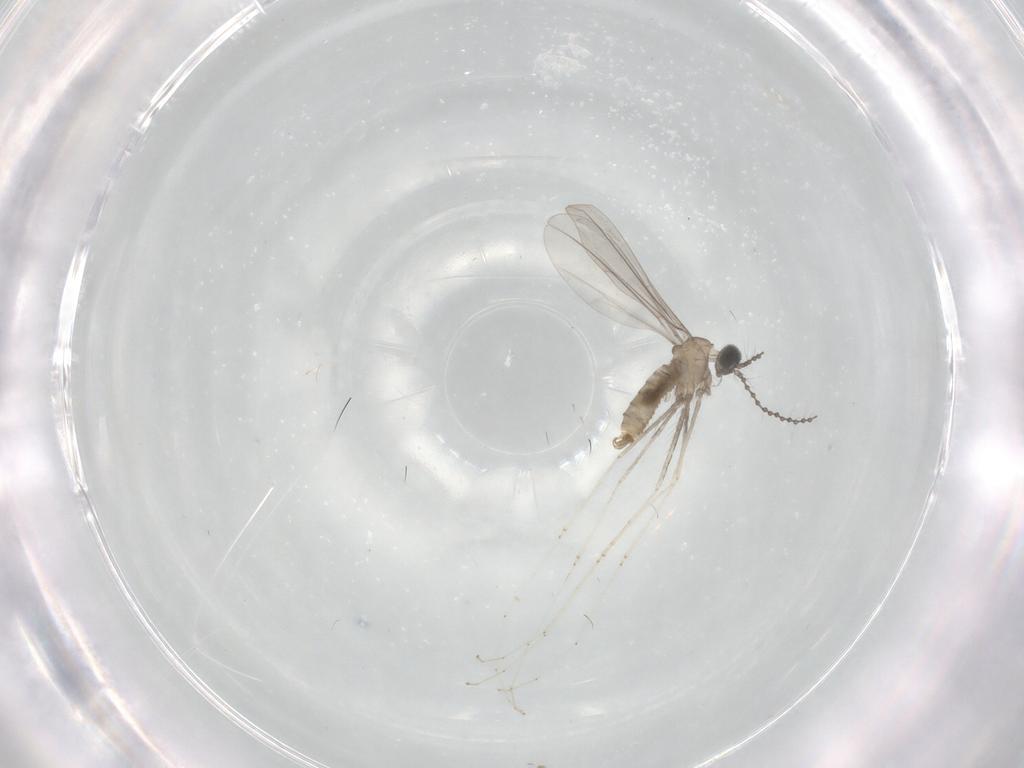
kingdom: Animalia
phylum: Arthropoda
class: Insecta
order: Diptera
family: Cecidomyiidae
